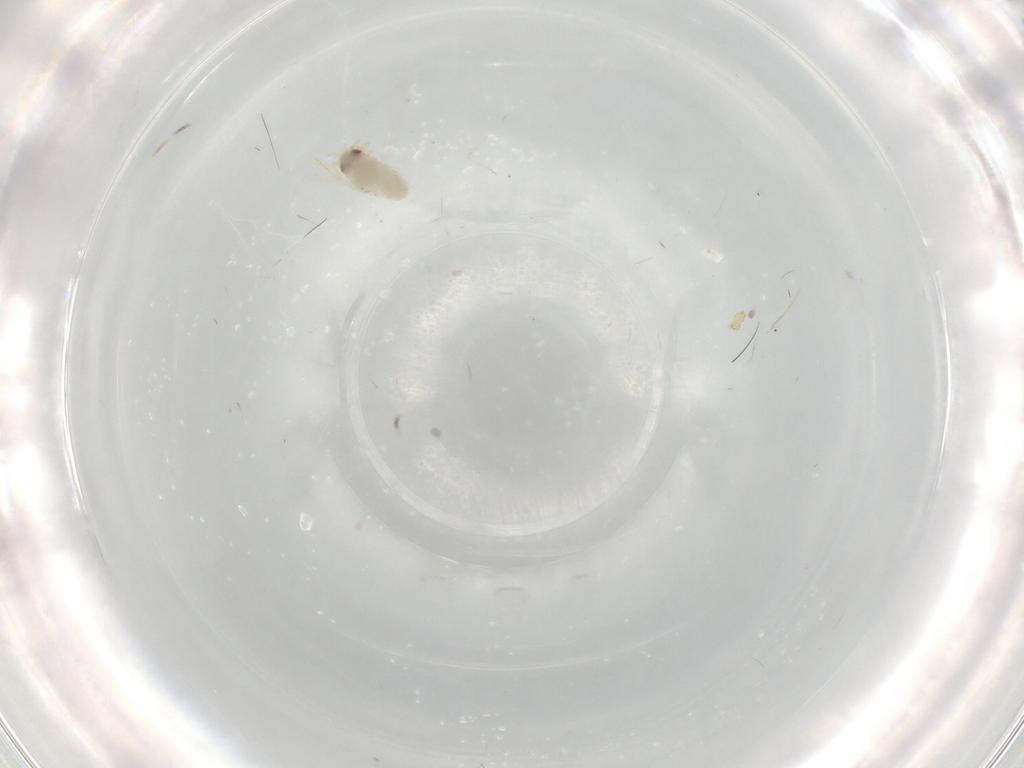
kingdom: Animalia
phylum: Arthropoda
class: Insecta
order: Hemiptera
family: Aleyrodidae
